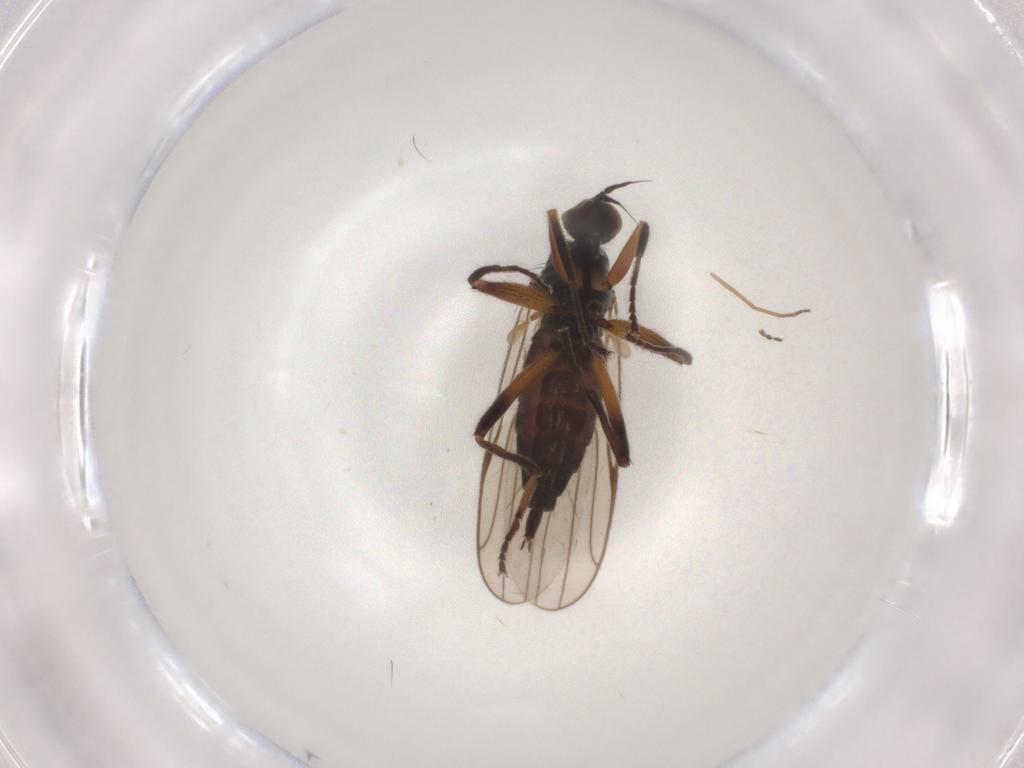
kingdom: Animalia
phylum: Arthropoda
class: Insecta
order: Diptera
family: Hybotidae
